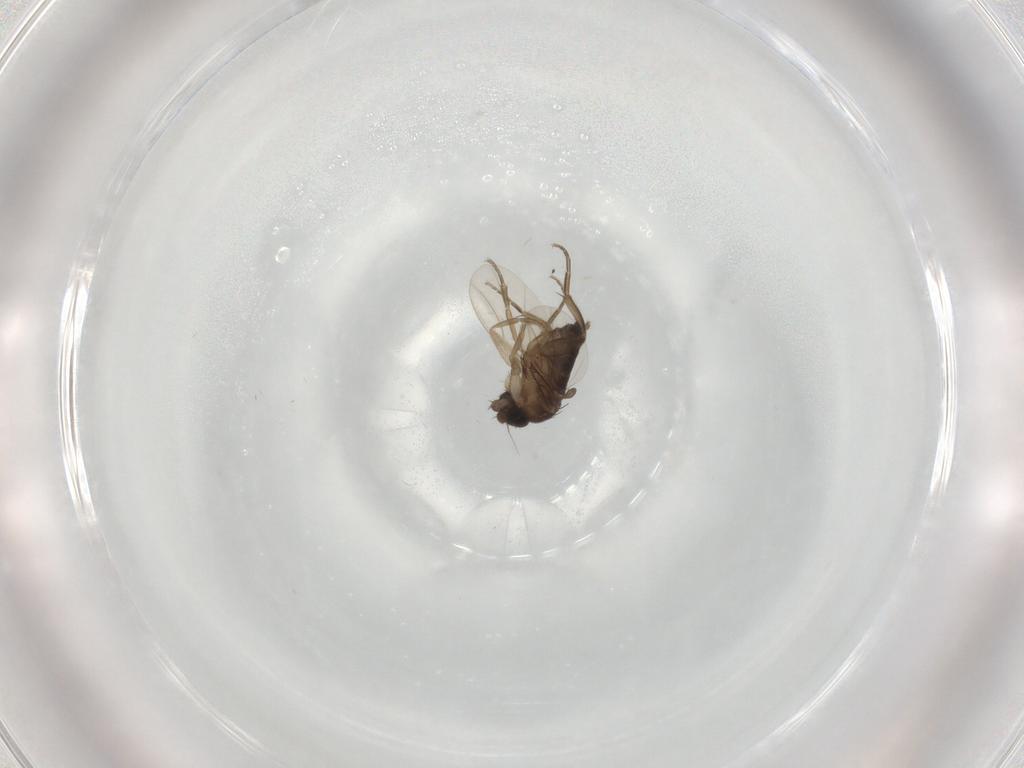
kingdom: Animalia
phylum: Arthropoda
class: Insecta
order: Diptera
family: Phoridae
